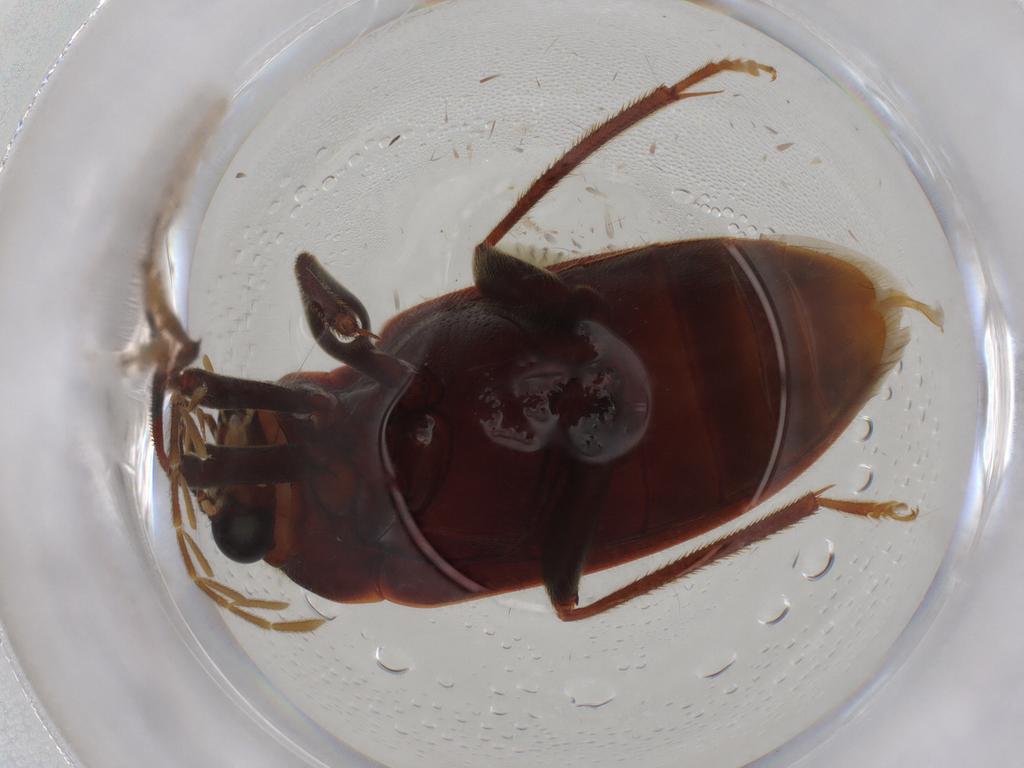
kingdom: Animalia
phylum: Arthropoda
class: Insecta
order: Coleoptera
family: Ptilodactylidae
